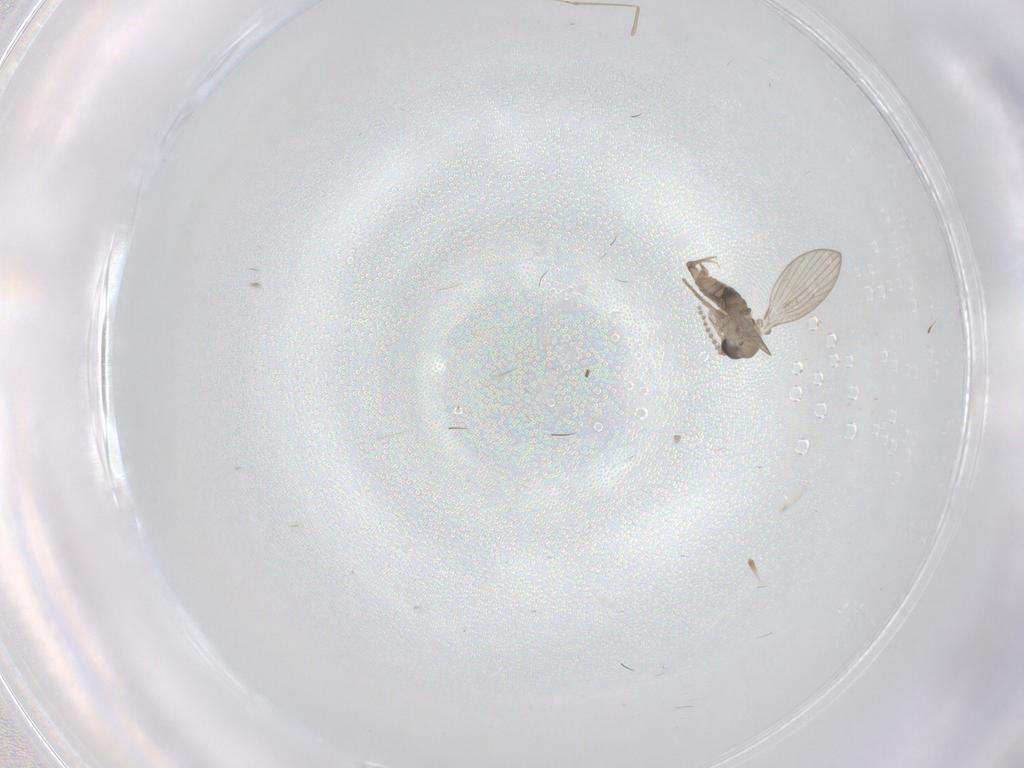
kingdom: Animalia
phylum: Arthropoda
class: Insecta
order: Diptera
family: Psychodidae
